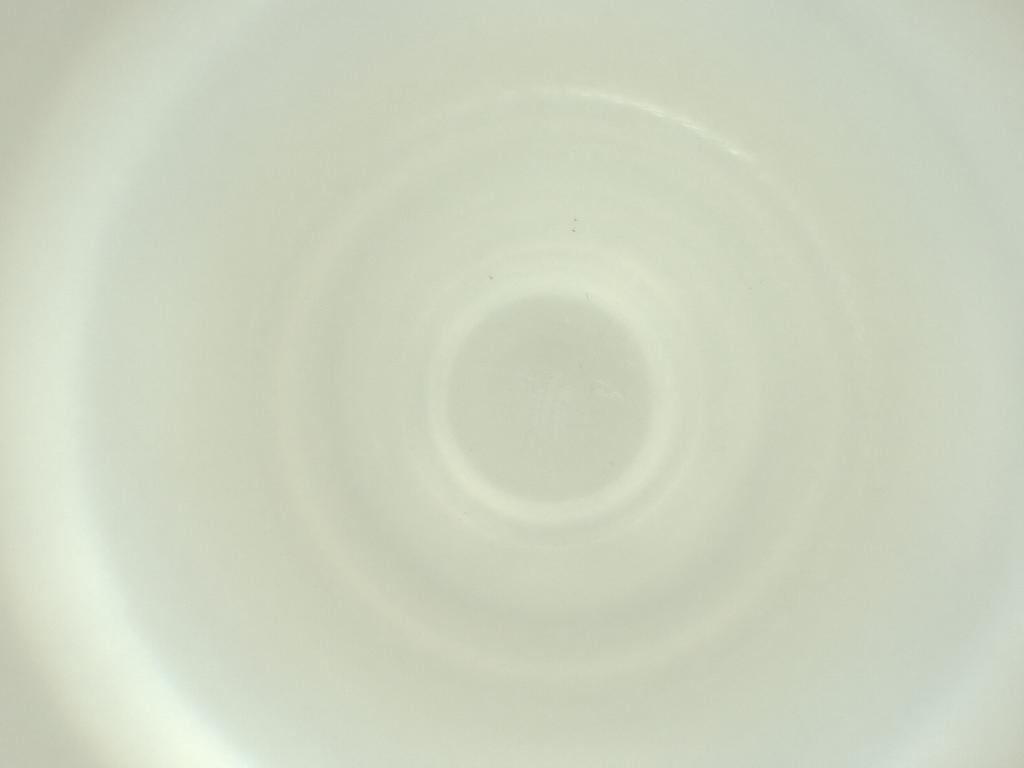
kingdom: Animalia
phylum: Arthropoda
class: Insecta
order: Diptera
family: Cecidomyiidae
